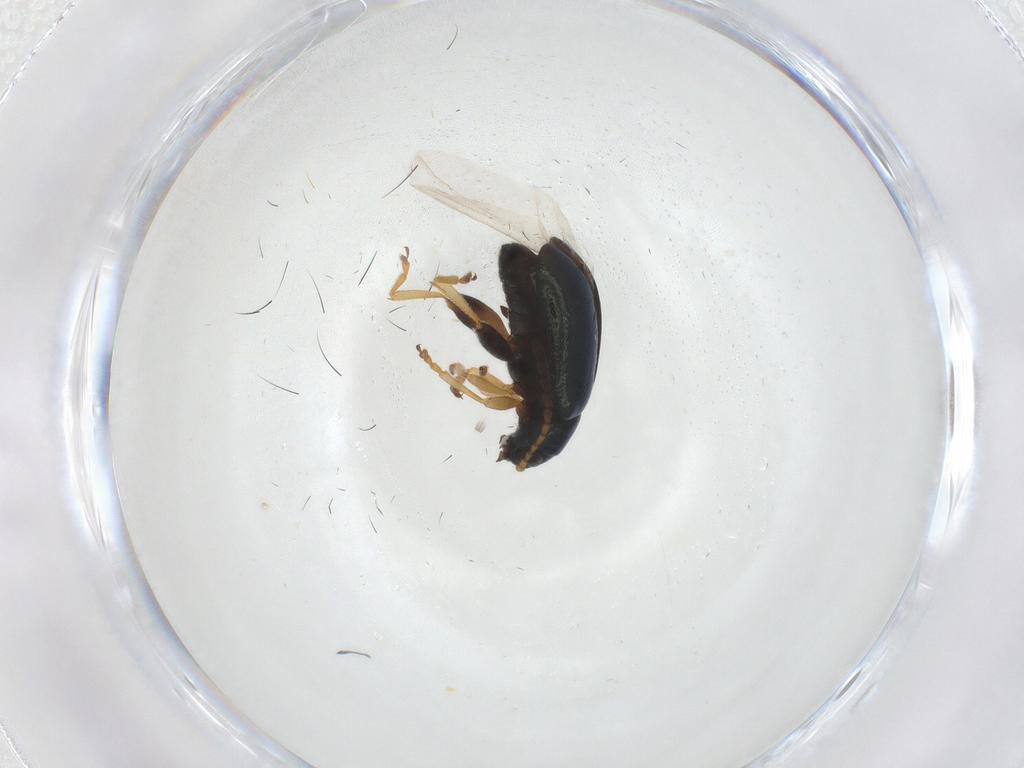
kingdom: Animalia
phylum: Arthropoda
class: Insecta
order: Coleoptera
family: Chrysomelidae
